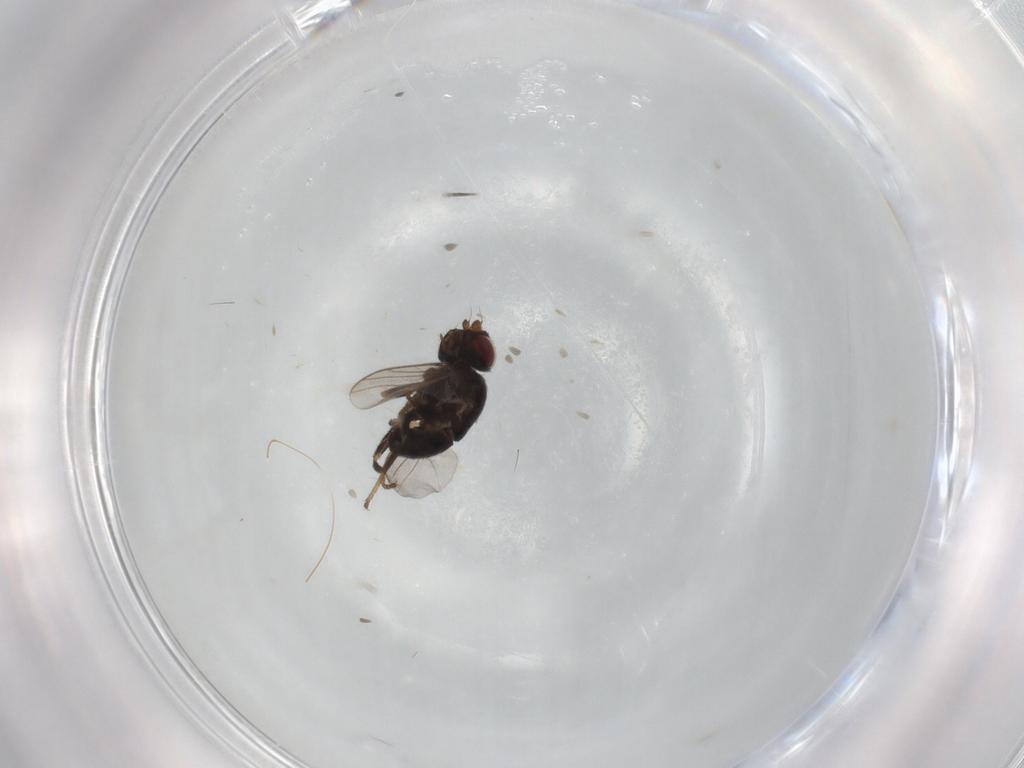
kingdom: Animalia
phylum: Arthropoda
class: Insecta
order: Diptera
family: Chloropidae
